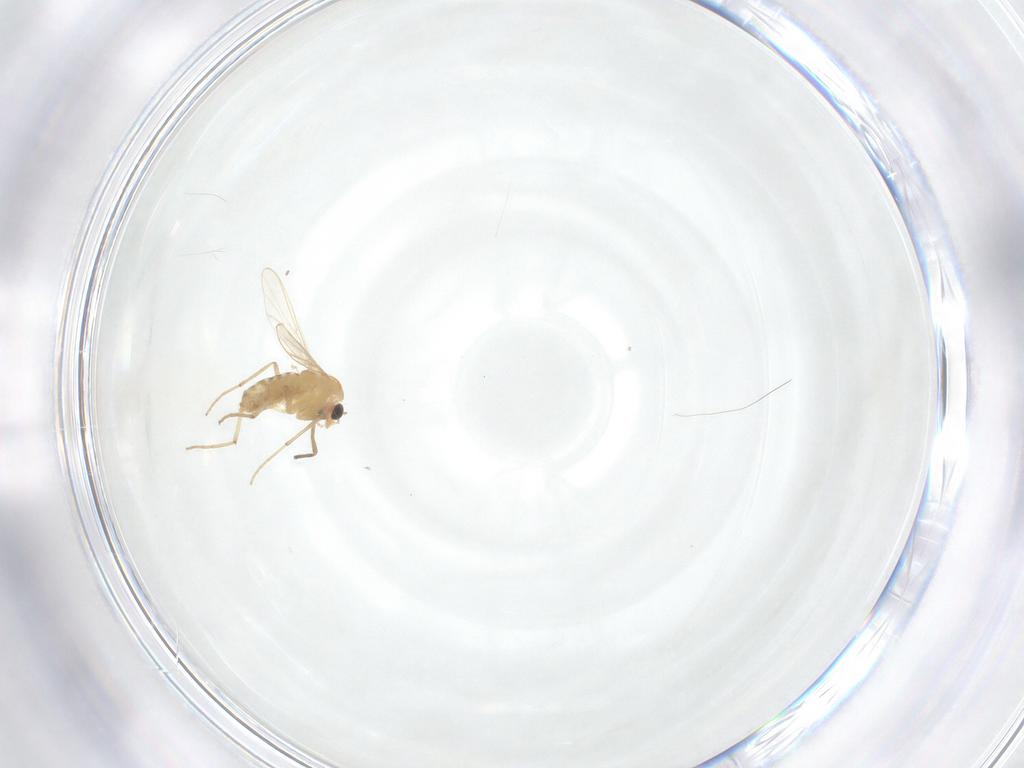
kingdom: Animalia
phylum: Arthropoda
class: Insecta
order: Diptera
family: Chironomidae
